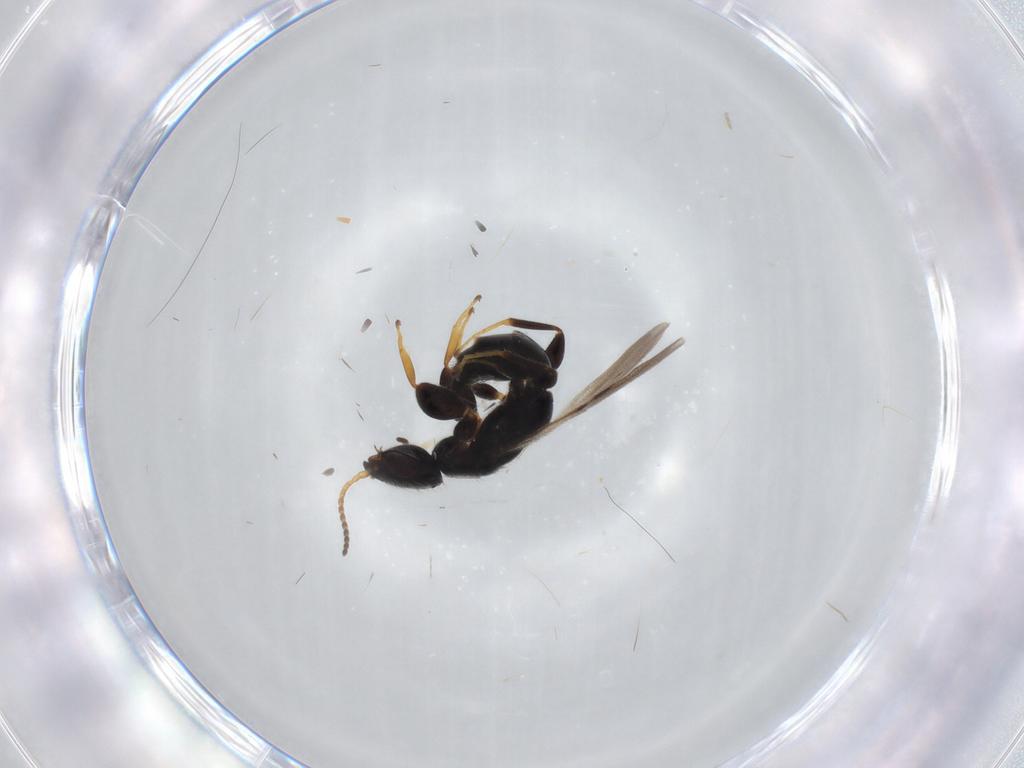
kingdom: Animalia
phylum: Arthropoda
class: Insecta
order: Hymenoptera
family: Bethylidae
